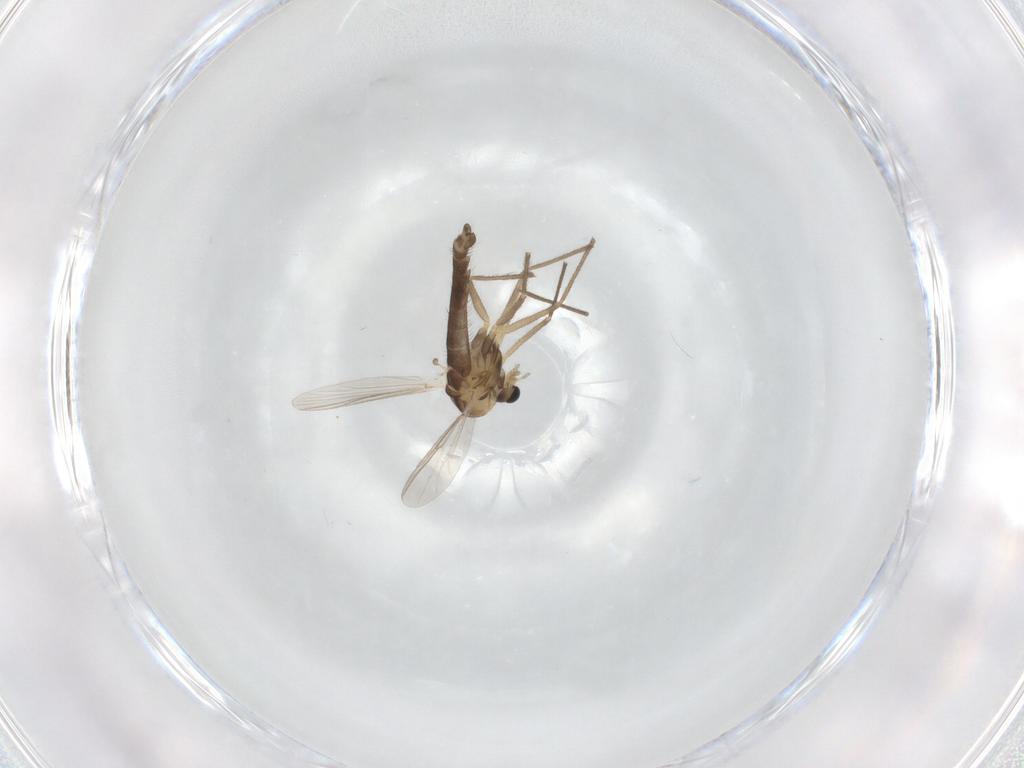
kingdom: Animalia
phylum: Arthropoda
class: Insecta
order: Diptera
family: Chironomidae
